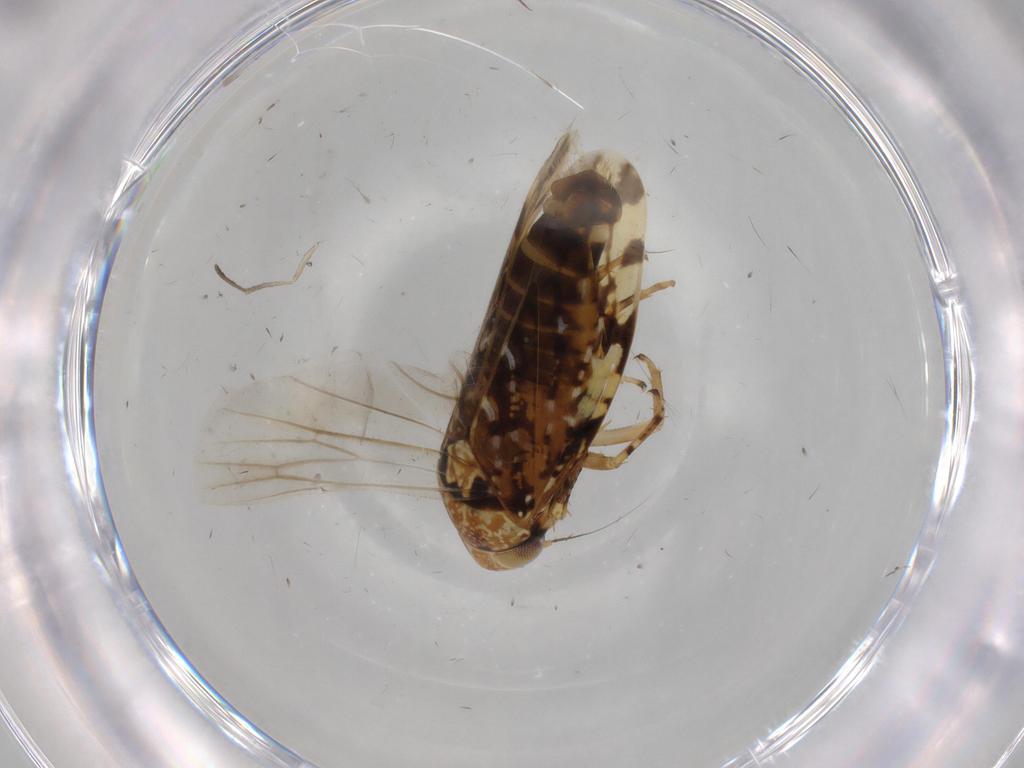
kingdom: Animalia
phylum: Arthropoda
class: Insecta
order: Hemiptera
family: Cicadellidae
